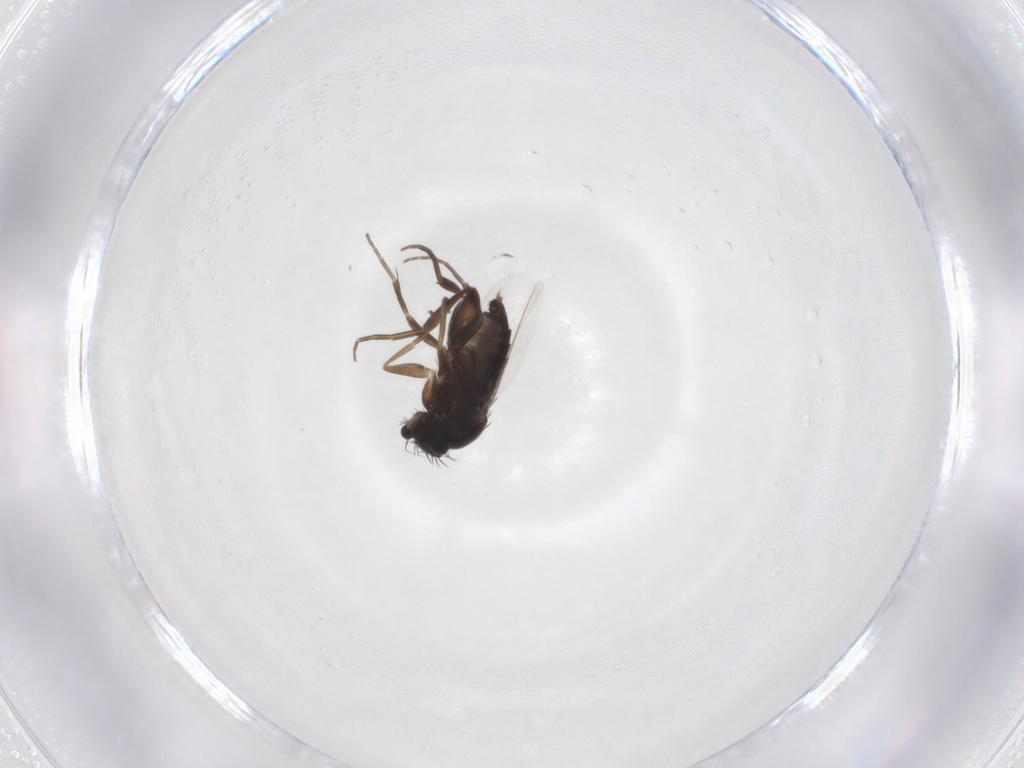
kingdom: Animalia
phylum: Arthropoda
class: Insecta
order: Diptera
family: Phoridae
